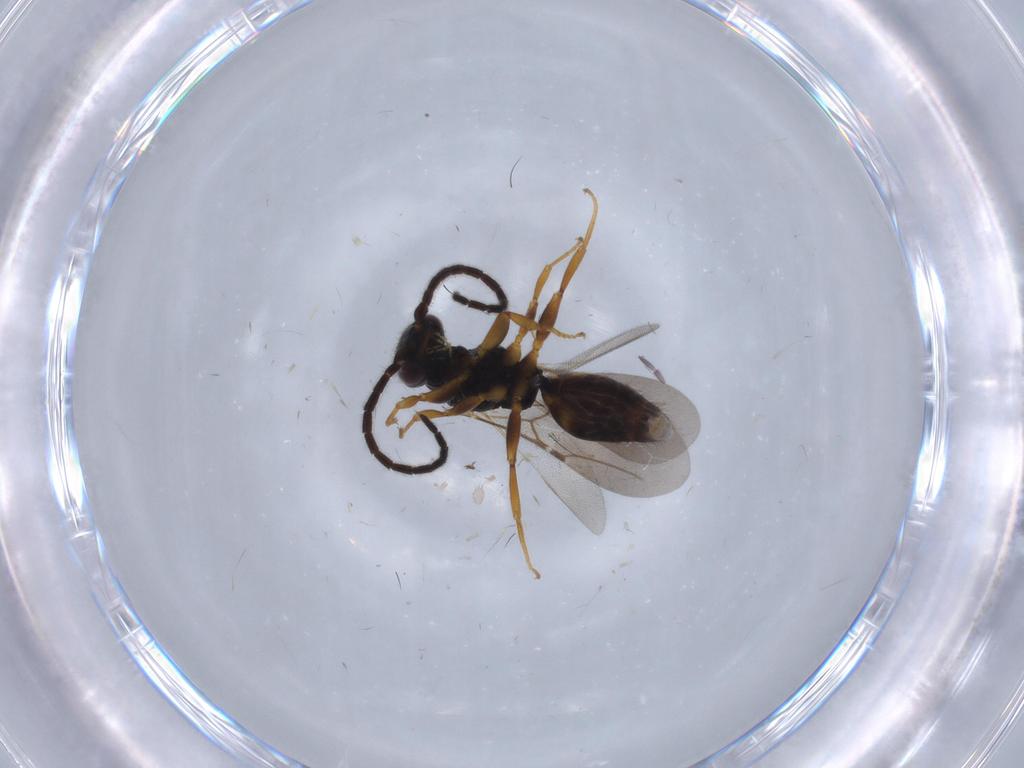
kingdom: Animalia
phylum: Arthropoda
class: Insecta
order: Hymenoptera
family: Bethylidae
